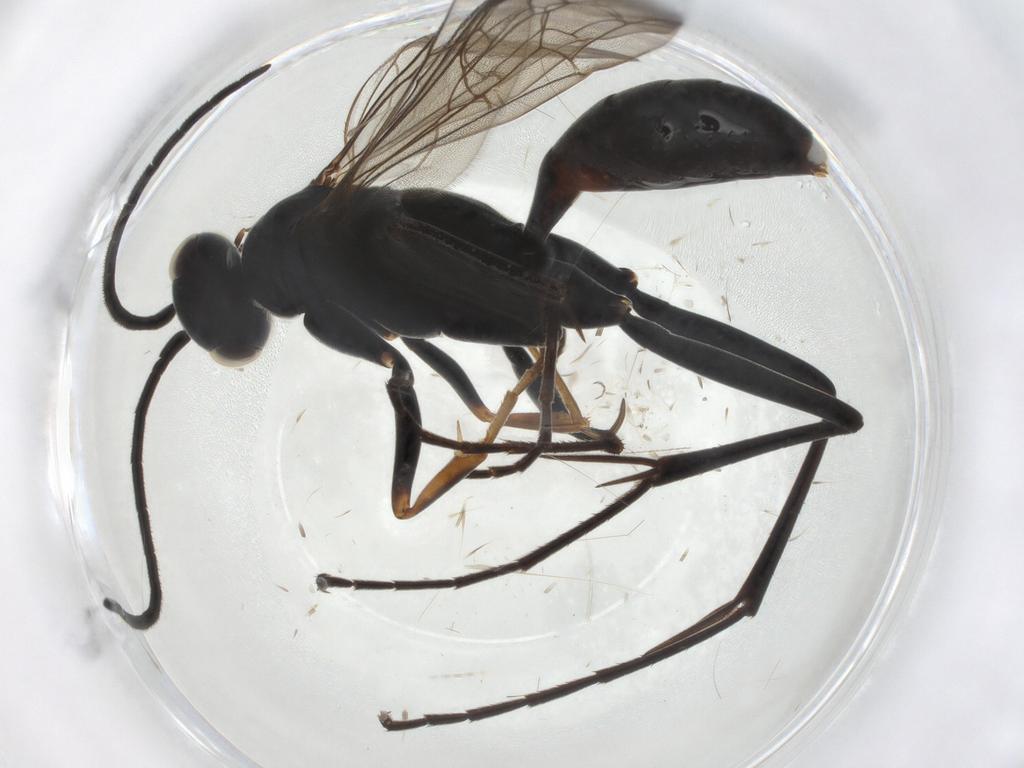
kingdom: Animalia
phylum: Arthropoda
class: Insecta
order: Hymenoptera
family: Pompilidae
